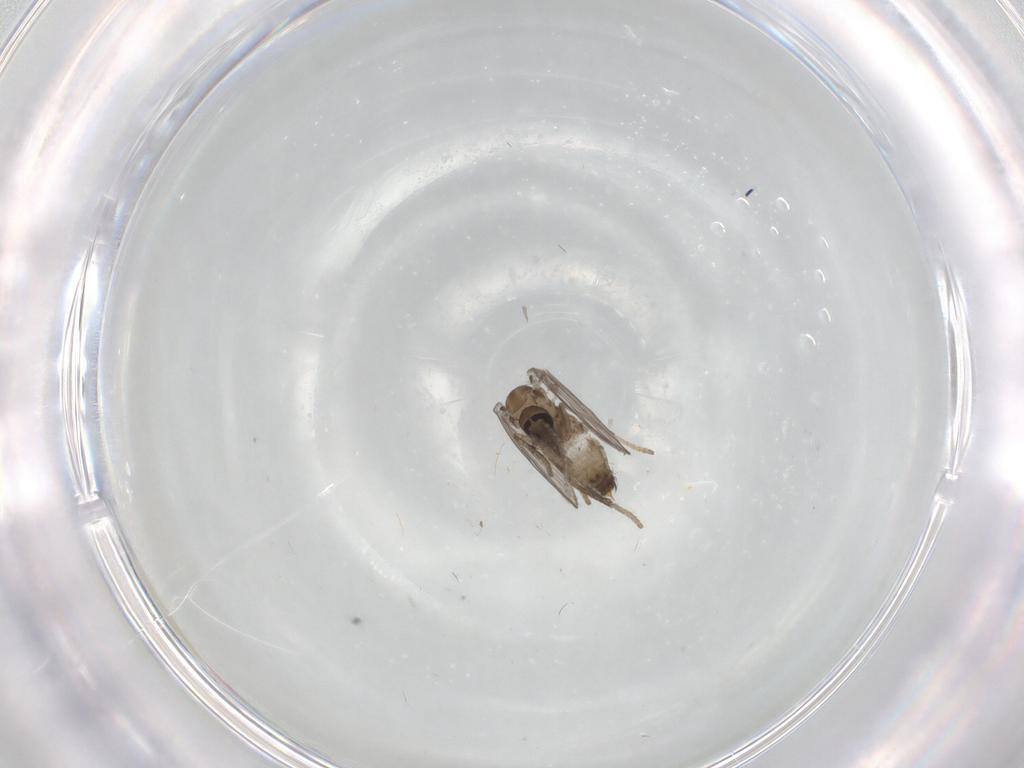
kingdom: Animalia
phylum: Arthropoda
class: Insecta
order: Diptera
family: Psychodidae
